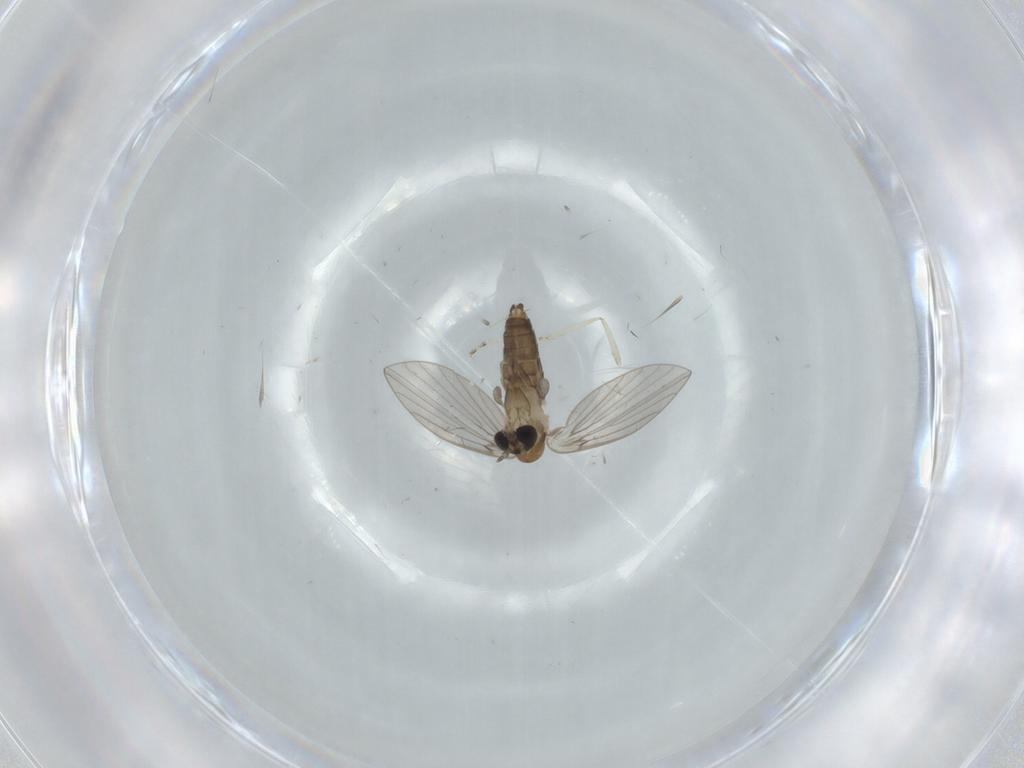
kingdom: Animalia
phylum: Arthropoda
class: Insecta
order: Diptera
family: Psychodidae
